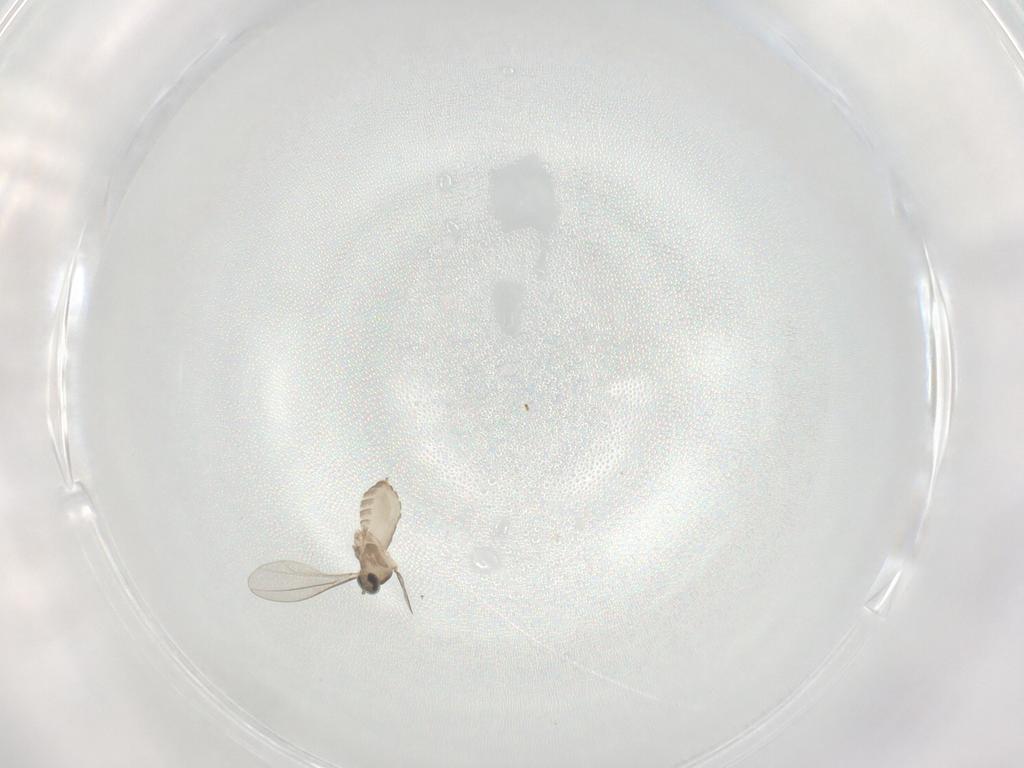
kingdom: Animalia
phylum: Arthropoda
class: Insecta
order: Diptera
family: Cecidomyiidae
